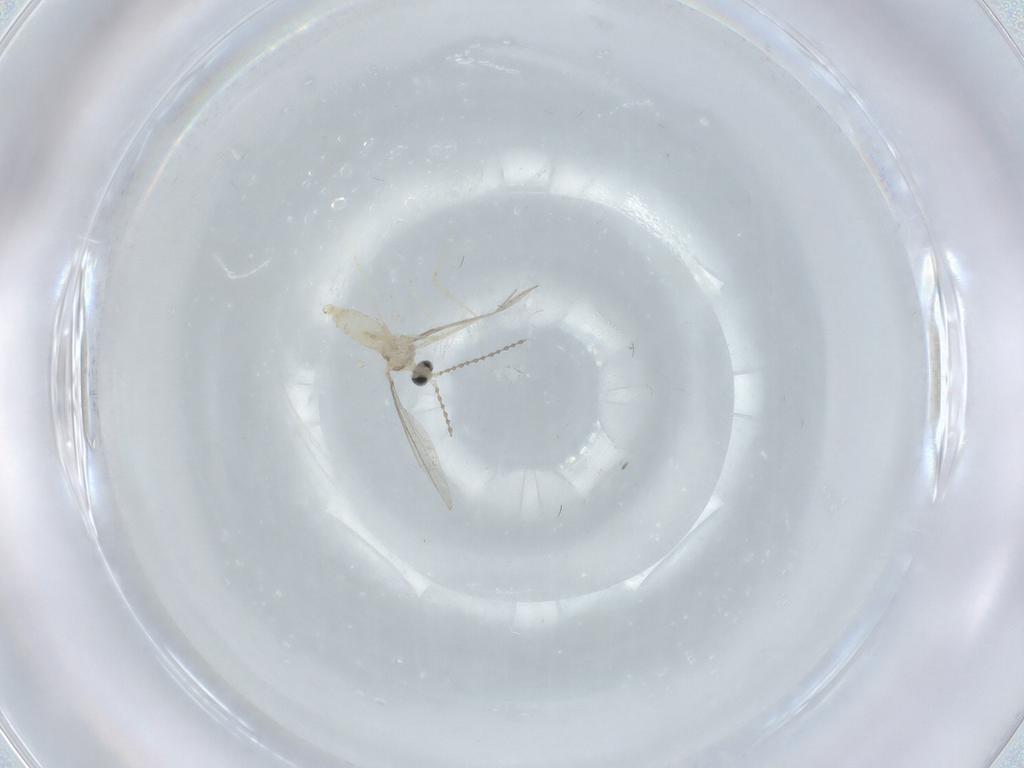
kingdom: Animalia
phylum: Arthropoda
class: Insecta
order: Diptera
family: Cecidomyiidae
